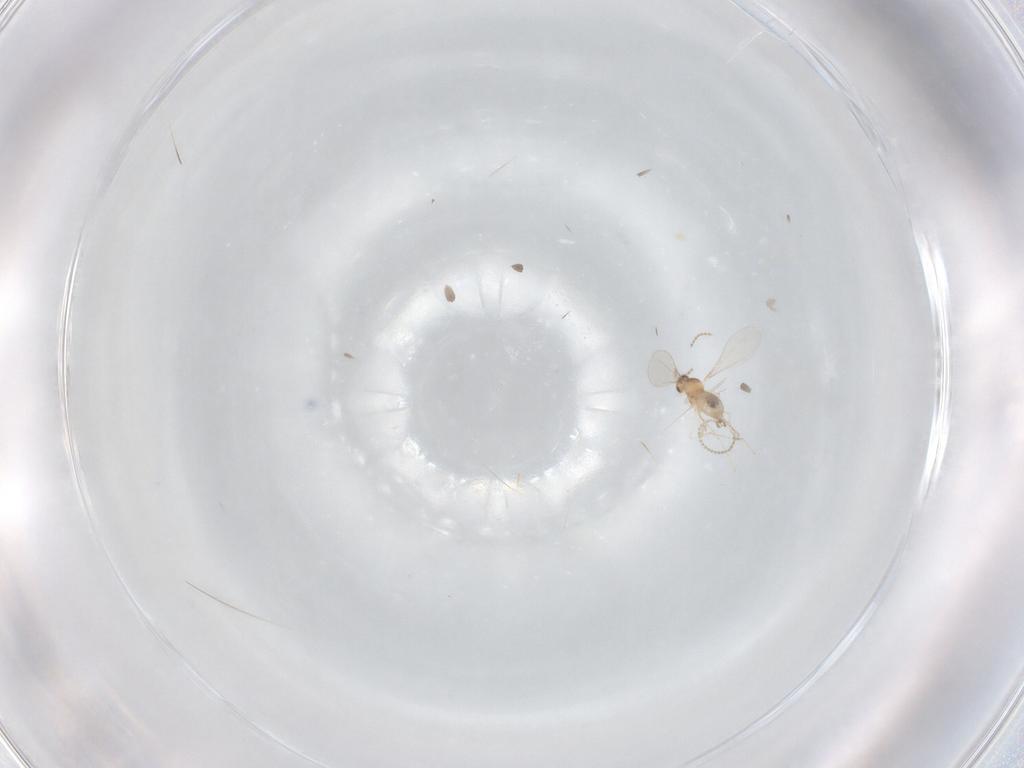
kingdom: Animalia
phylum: Arthropoda
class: Insecta
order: Diptera
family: Cecidomyiidae
